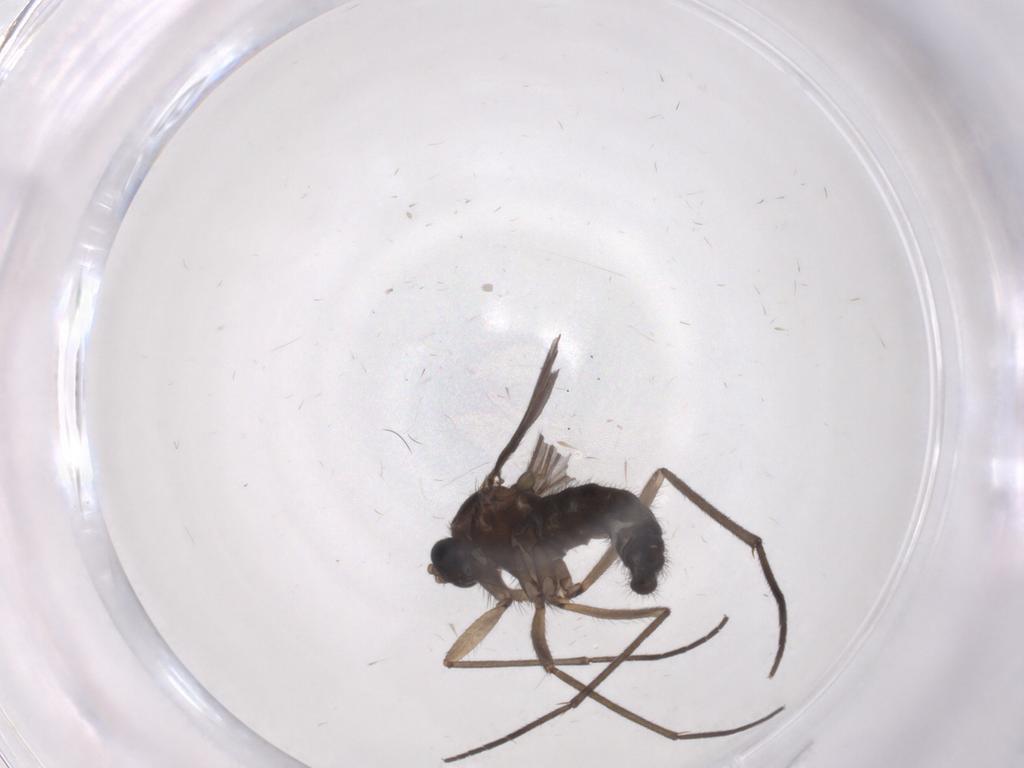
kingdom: Animalia
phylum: Arthropoda
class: Insecta
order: Diptera
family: Sciaridae
